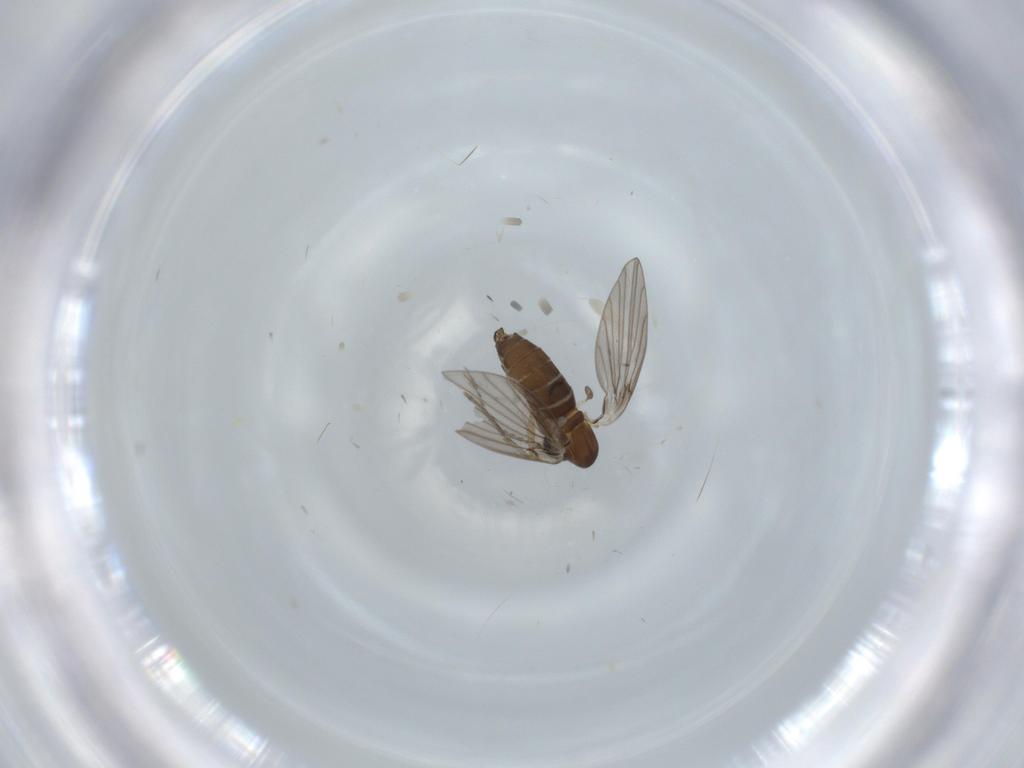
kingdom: Animalia
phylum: Arthropoda
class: Insecta
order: Diptera
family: Psychodidae
